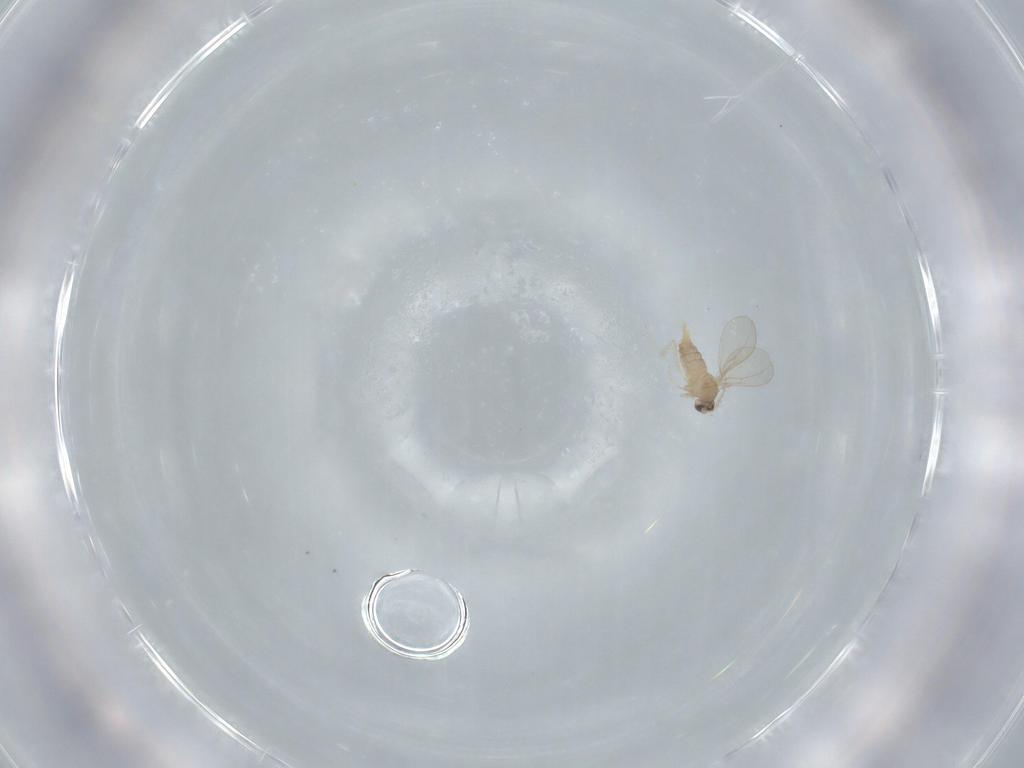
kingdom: Animalia
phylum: Arthropoda
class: Insecta
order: Diptera
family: Cecidomyiidae
